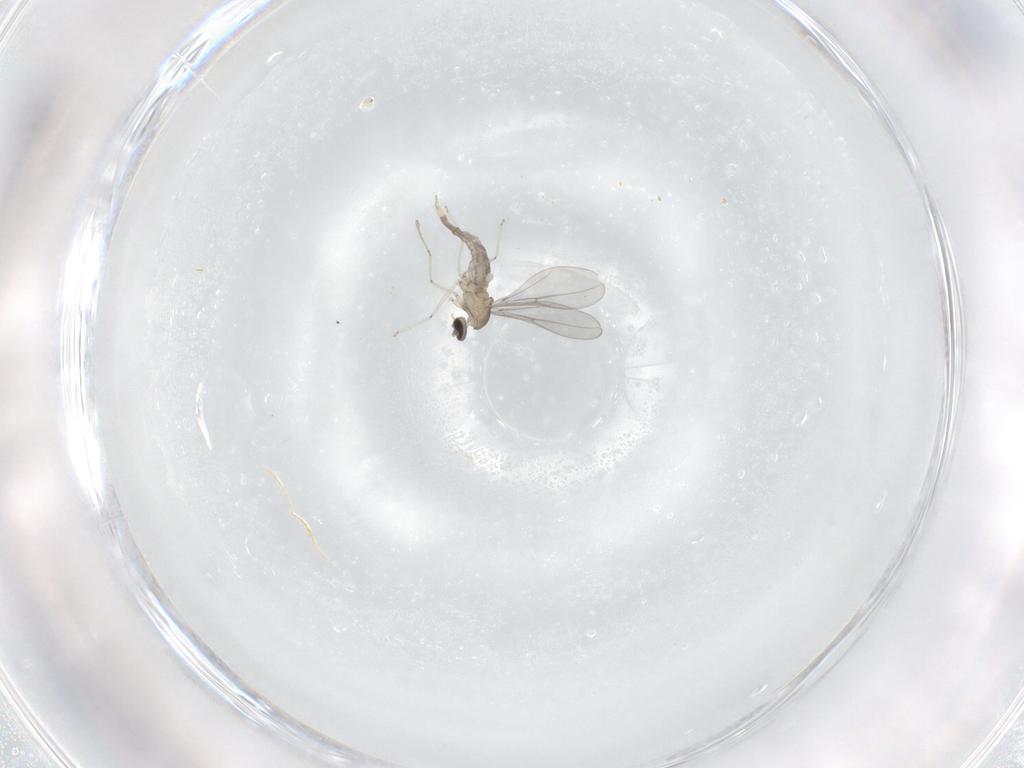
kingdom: Animalia
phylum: Arthropoda
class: Insecta
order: Diptera
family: Cecidomyiidae
